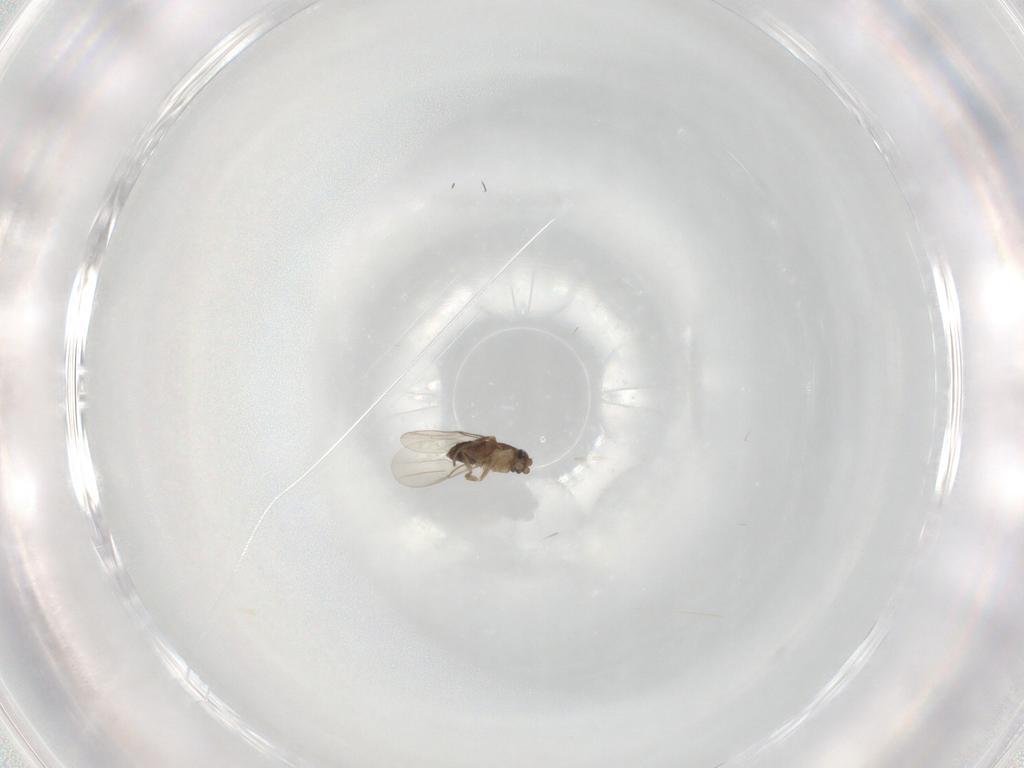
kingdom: Animalia
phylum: Arthropoda
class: Insecta
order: Diptera
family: Phoridae
